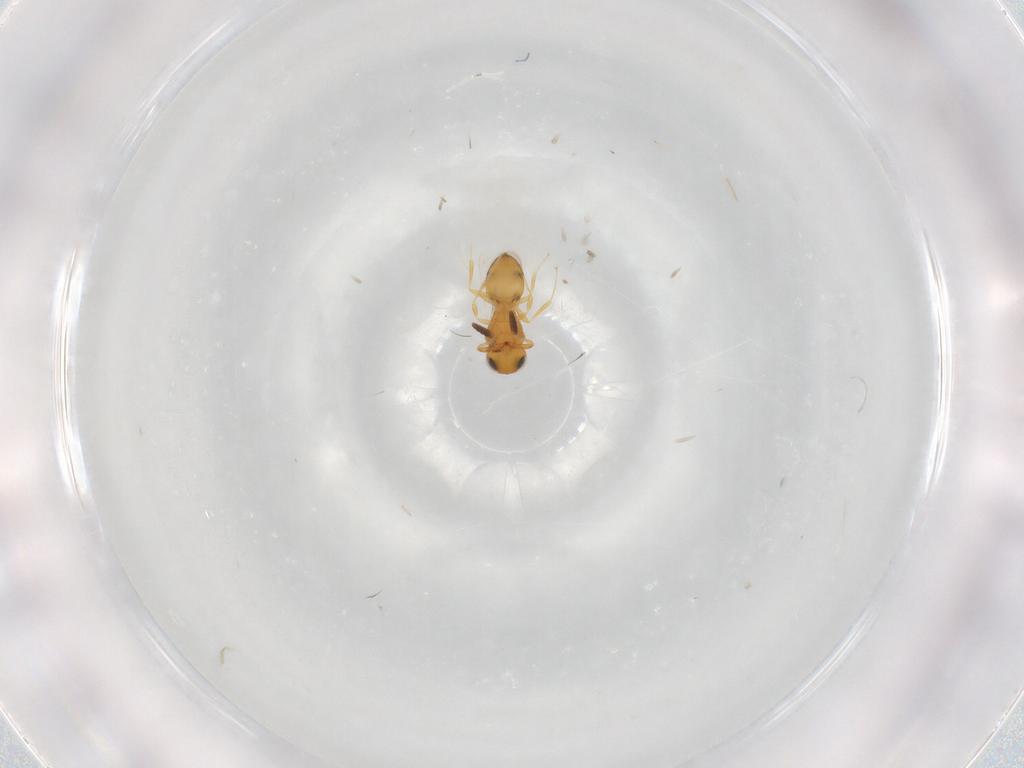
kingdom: Animalia
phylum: Arthropoda
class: Insecta
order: Hymenoptera
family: Scelionidae
